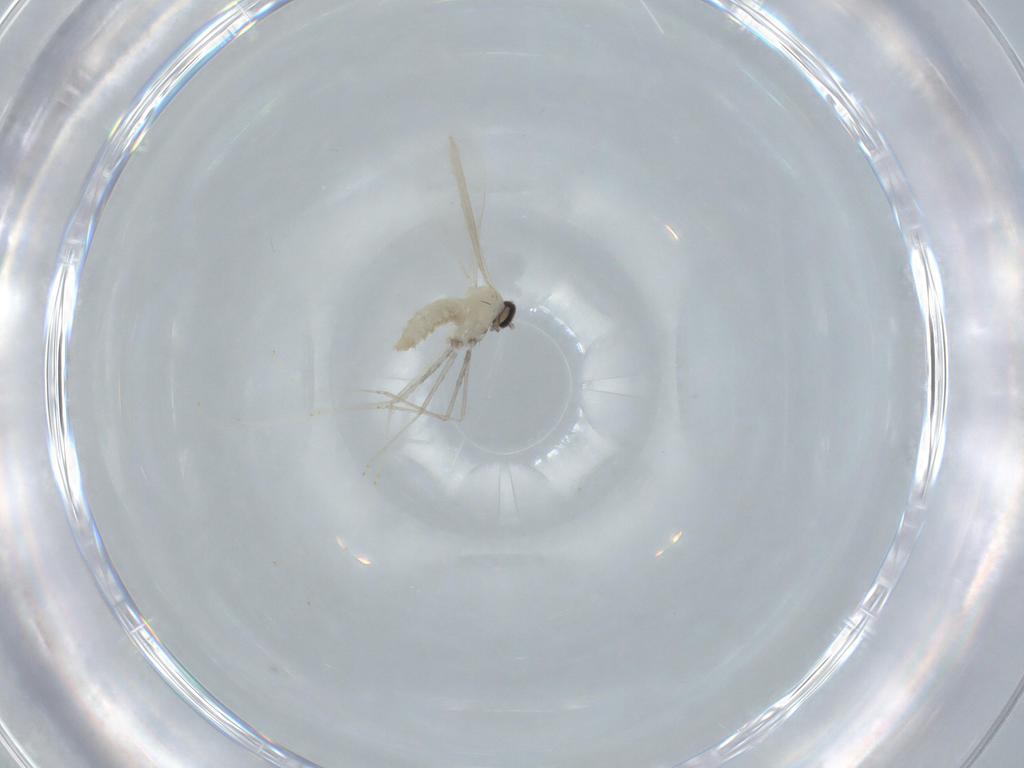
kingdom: Animalia
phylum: Arthropoda
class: Insecta
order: Diptera
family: Cecidomyiidae
